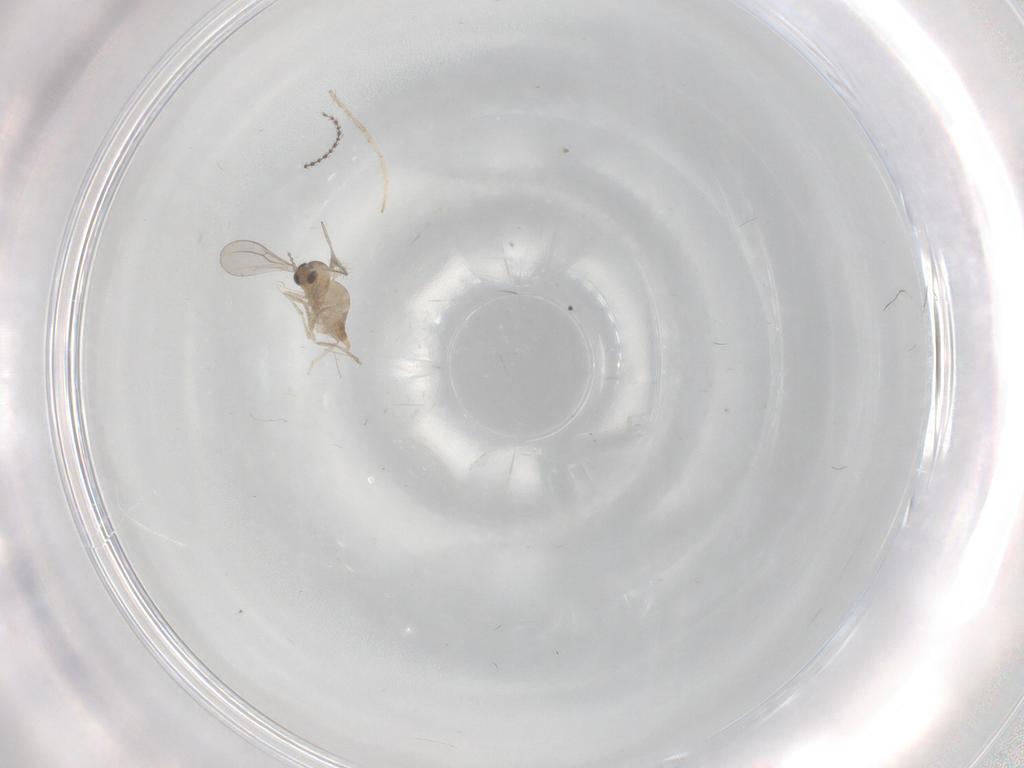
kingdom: Animalia
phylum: Arthropoda
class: Insecta
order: Diptera
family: Cecidomyiidae
